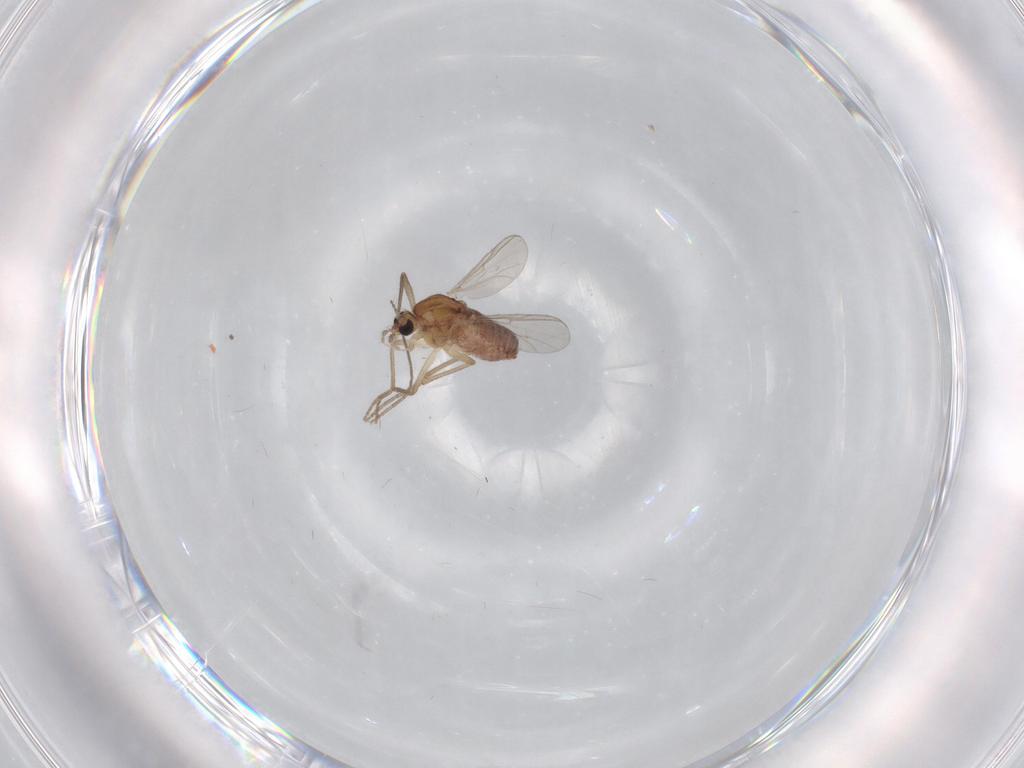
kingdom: Animalia
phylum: Arthropoda
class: Insecta
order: Diptera
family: Chironomidae
